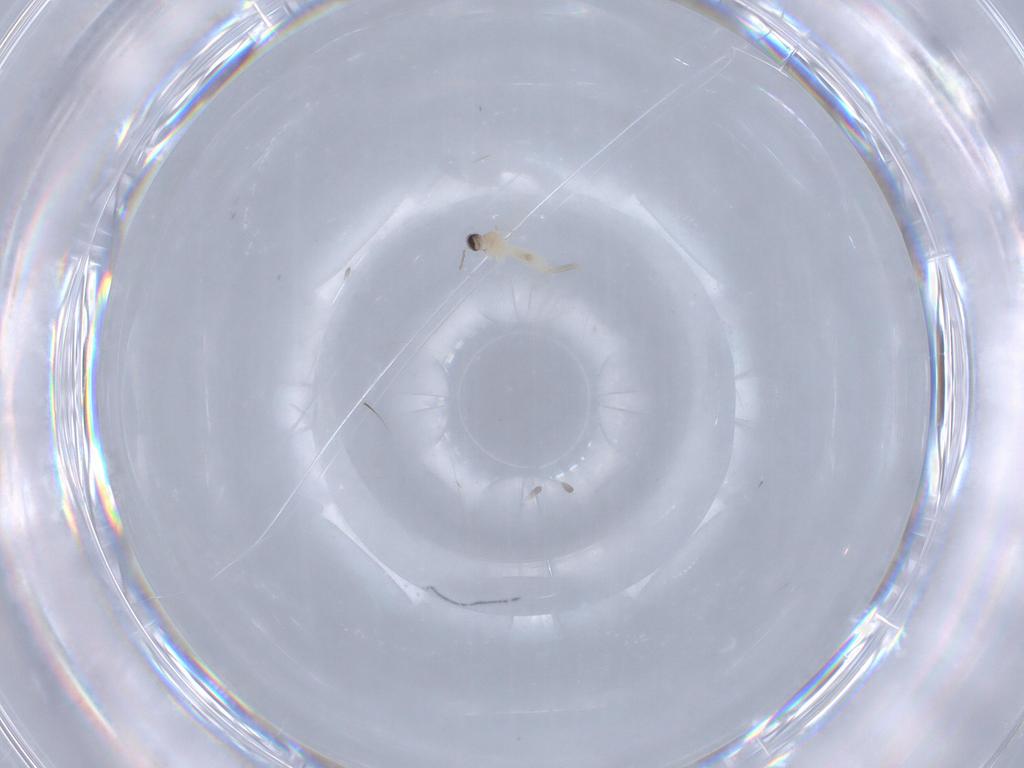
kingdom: Animalia
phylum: Arthropoda
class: Insecta
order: Diptera
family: Cecidomyiidae
